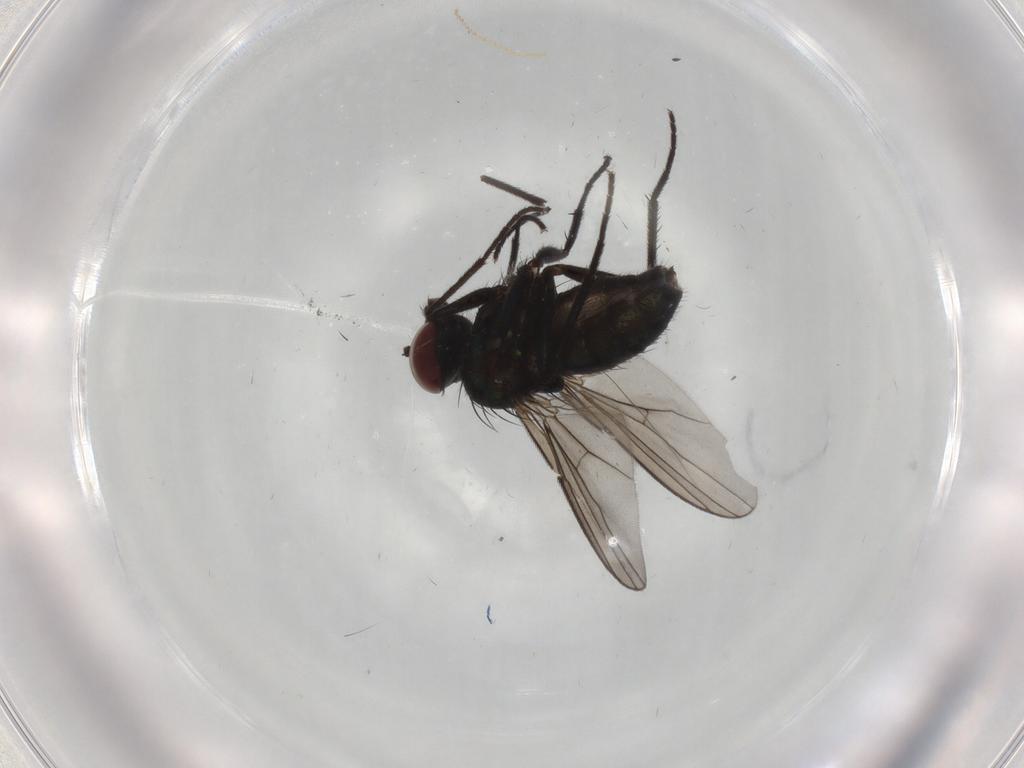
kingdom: Animalia
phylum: Arthropoda
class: Insecta
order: Diptera
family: Dolichopodidae
